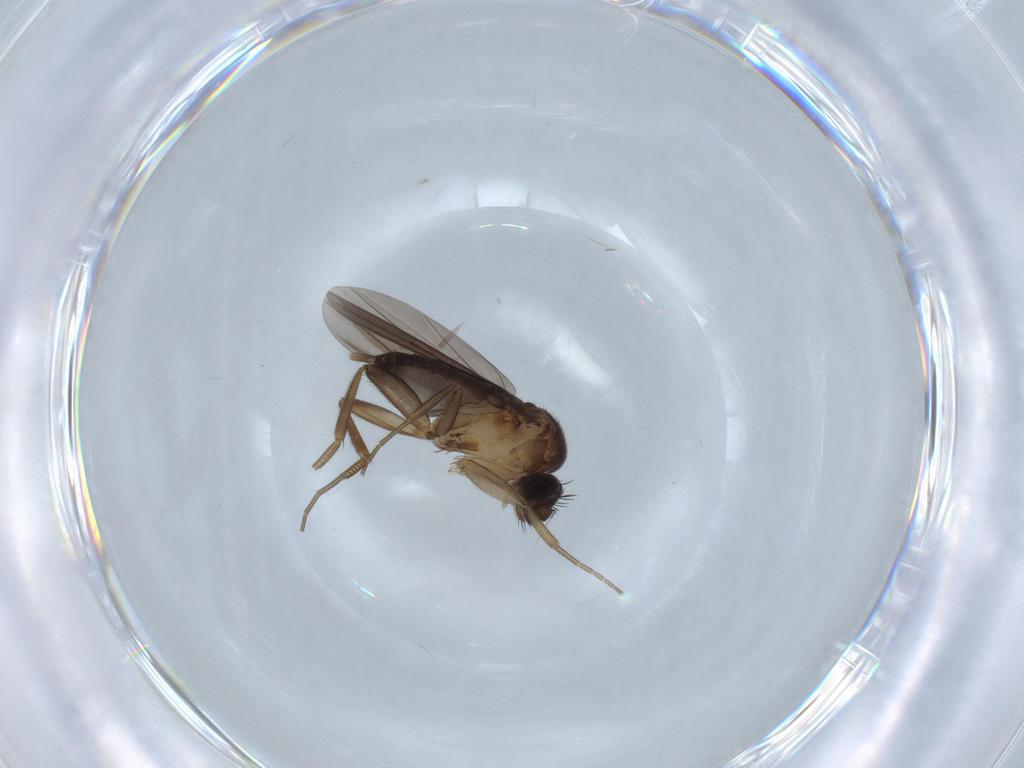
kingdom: Animalia
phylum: Arthropoda
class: Insecta
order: Diptera
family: Phoridae
